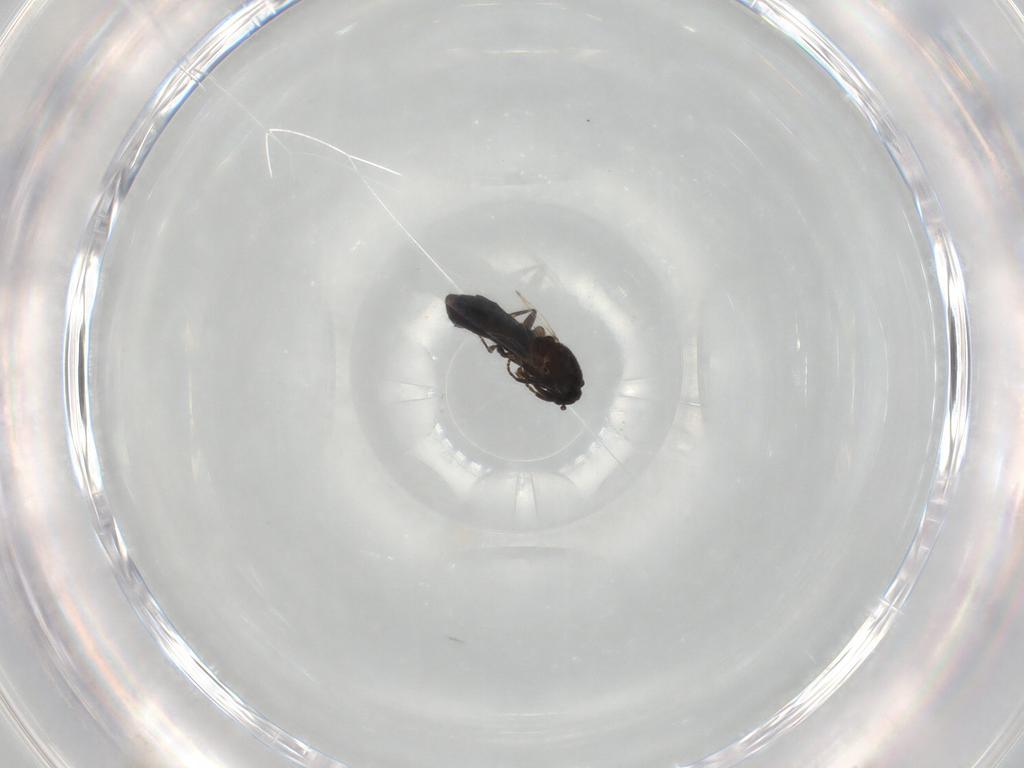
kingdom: Animalia
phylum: Arthropoda
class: Insecta
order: Diptera
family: Scatopsidae
